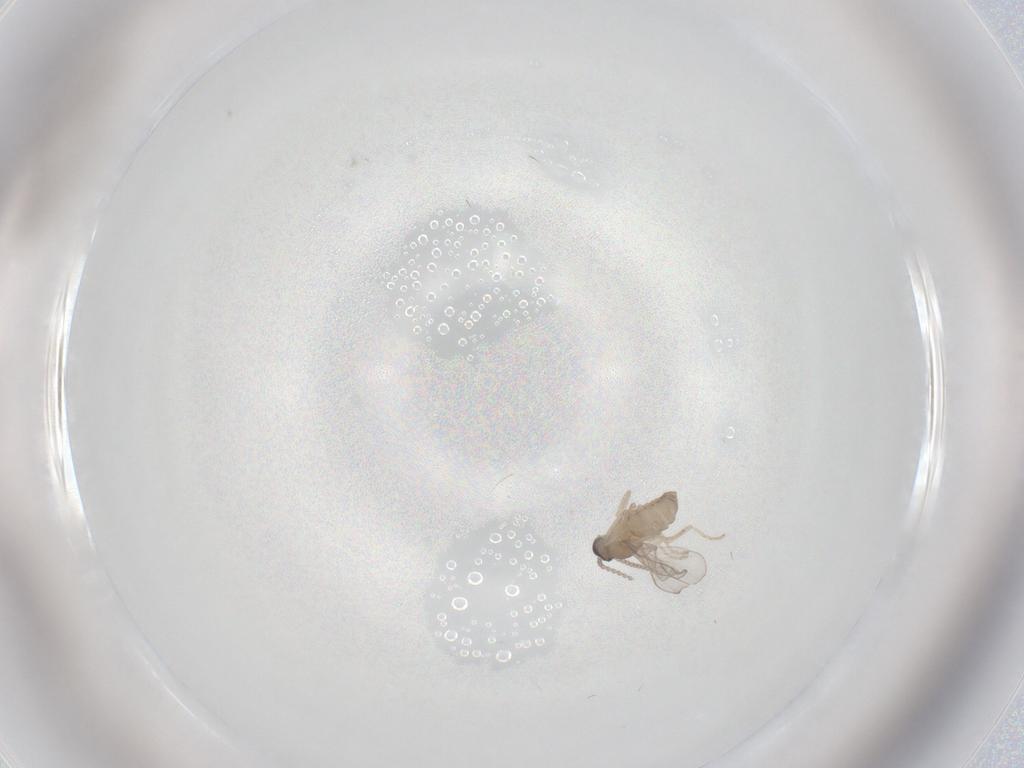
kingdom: Animalia
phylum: Arthropoda
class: Insecta
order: Diptera
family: Cecidomyiidae
